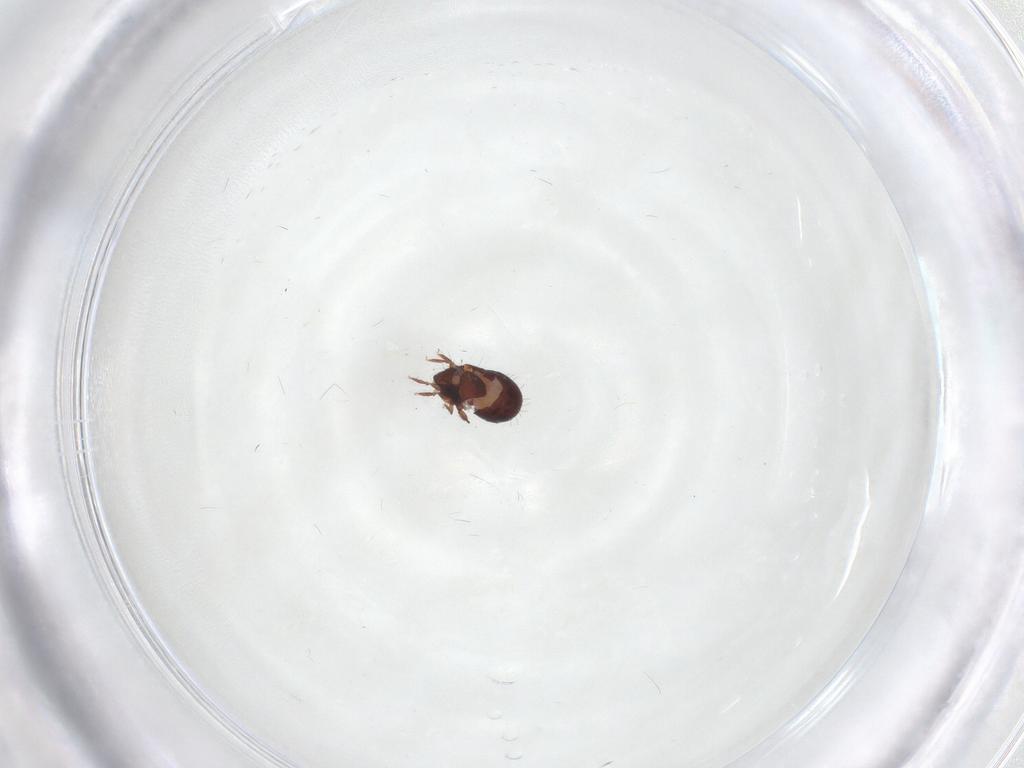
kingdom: Animalia
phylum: Arthropoda
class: Arachnida
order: Sarcoptiformes
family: Humerobatidae
